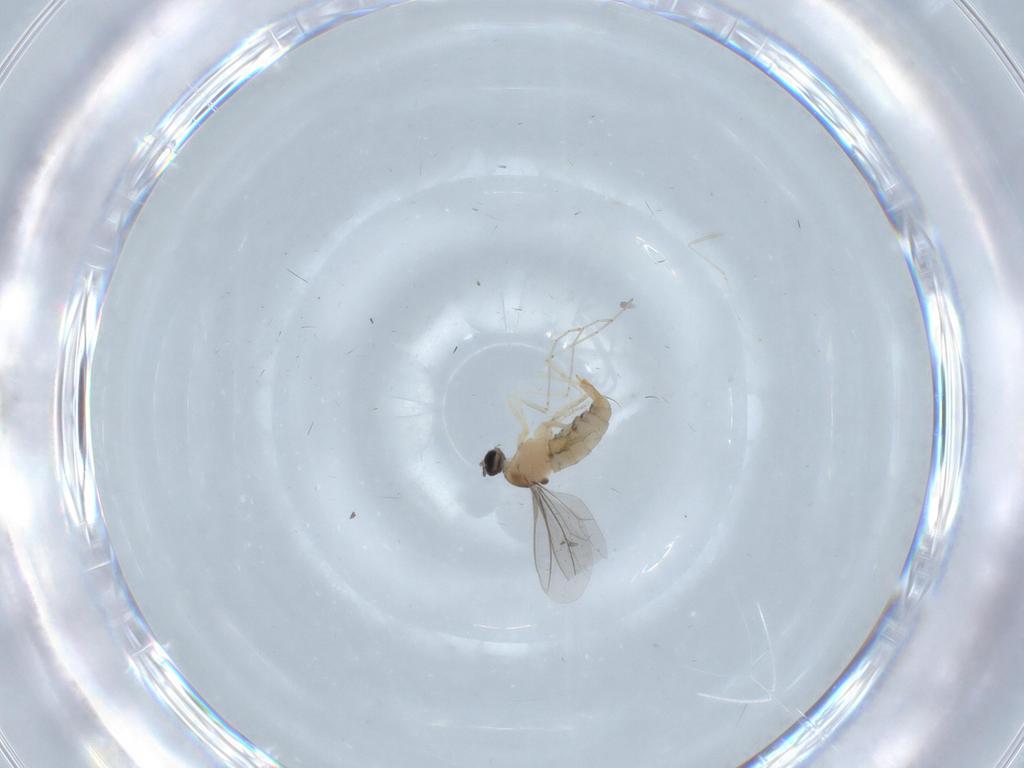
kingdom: Animalia
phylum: Arthropoda
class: Insecta
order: Diptera
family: Cecidomyiidae
